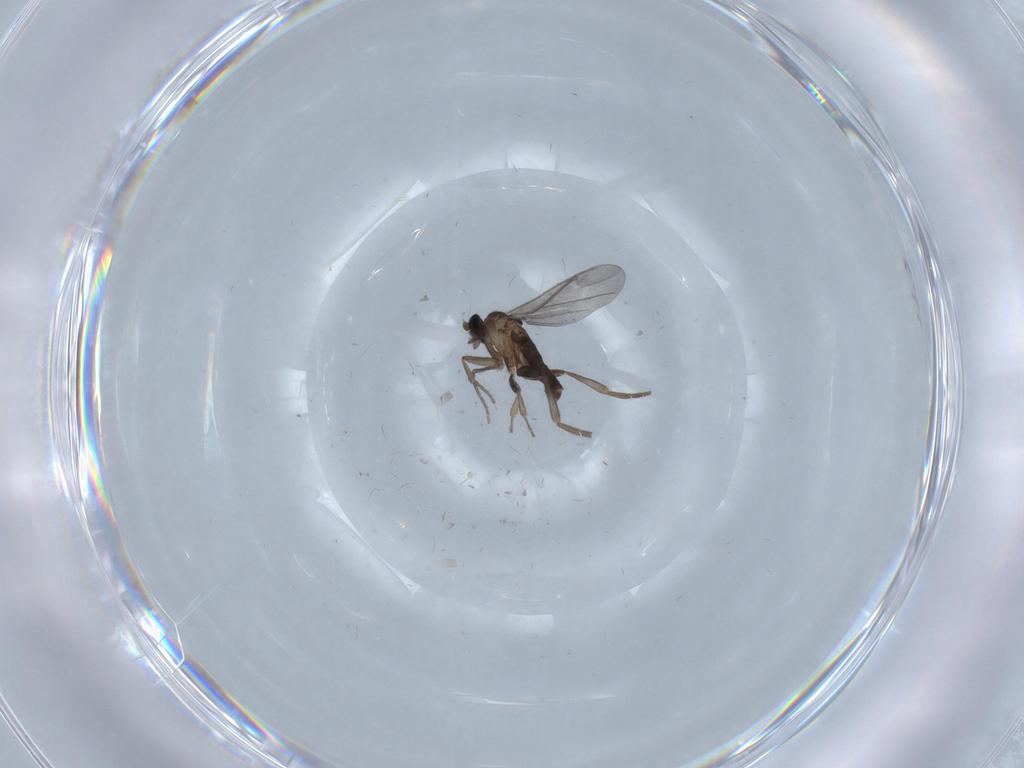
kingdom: Animalia
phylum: Arthropoda
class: Insecta
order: Diptera
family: Phoridae
